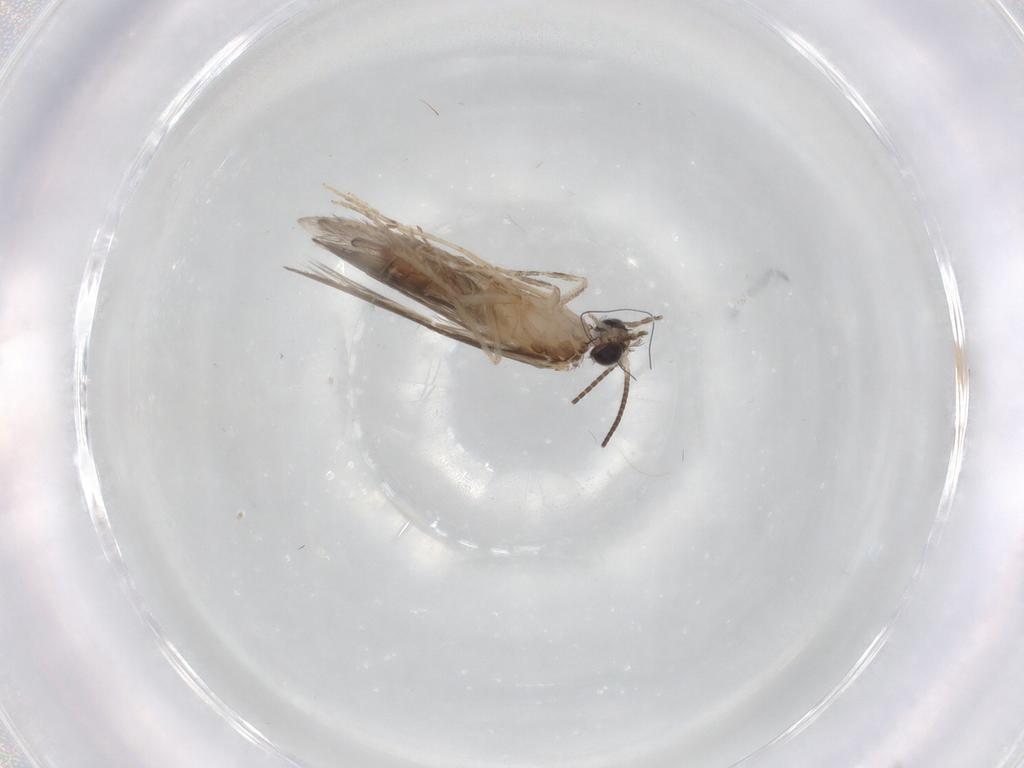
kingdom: Animalia
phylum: Arthropoda
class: Insecta
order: Trichoptera
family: Hydroptilidae
